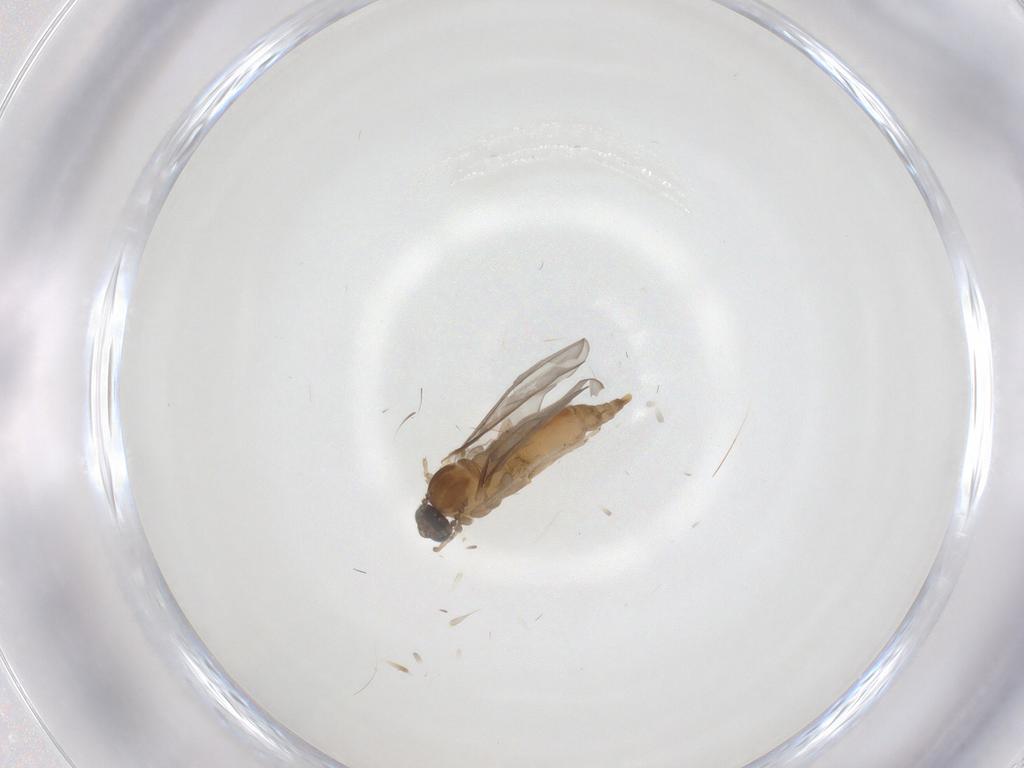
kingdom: Animalia
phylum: Arthropoda
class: Insecta
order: Diptera
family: Cecidomyiidae
